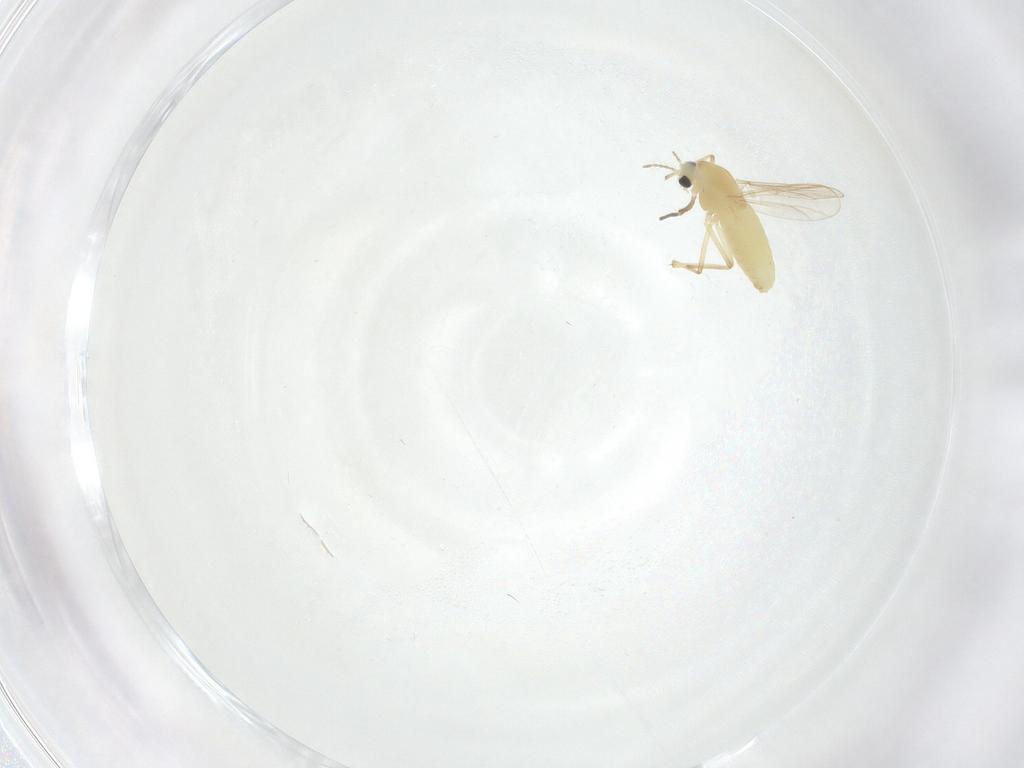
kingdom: Animalia
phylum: Arthropoda
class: Insecta
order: Diptera
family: Chironomidae
